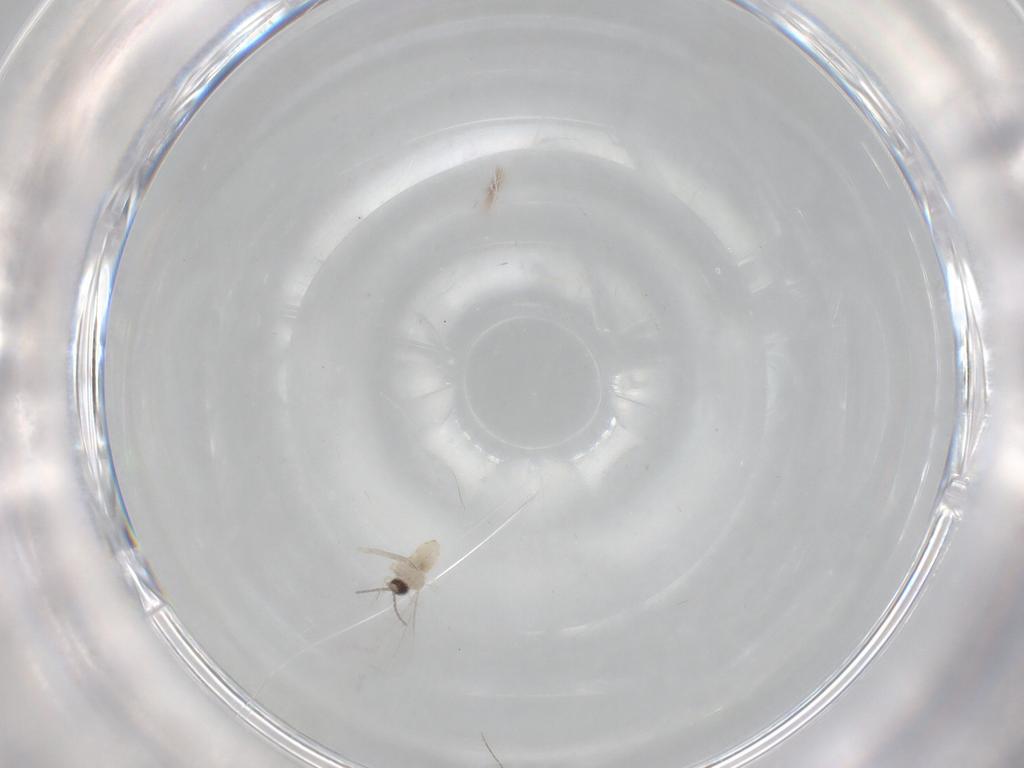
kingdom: Animalia
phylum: Arthropoda
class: Insecta
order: Diptera
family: Cecidomyiidae
